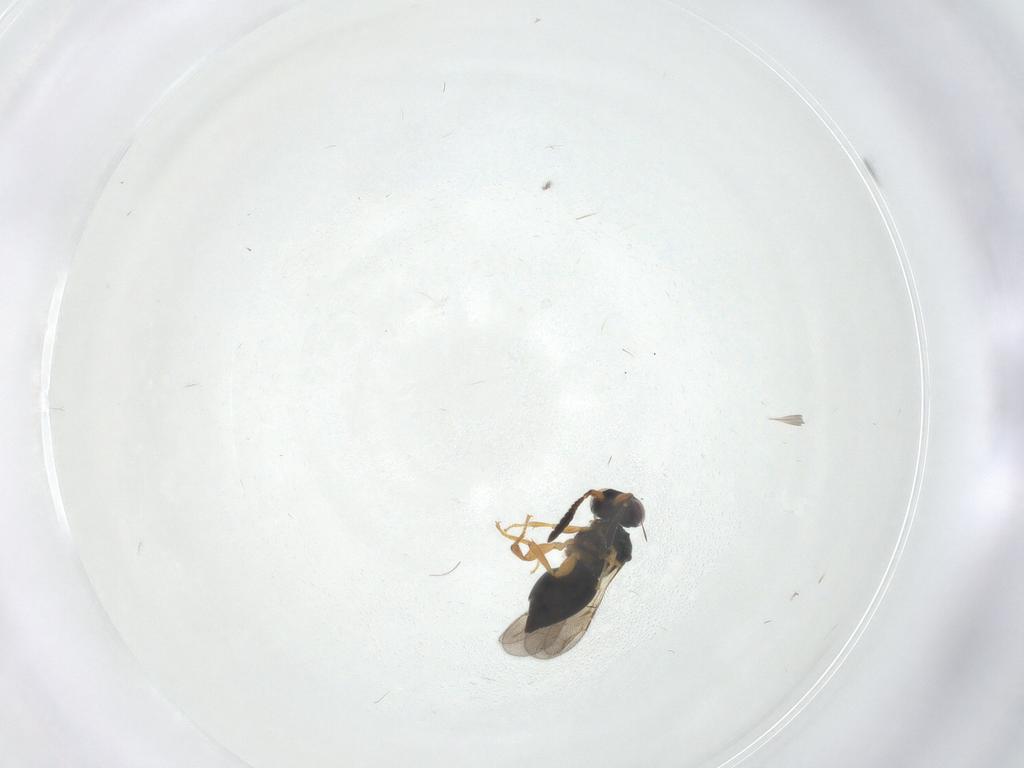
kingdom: Animalia
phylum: Arthropoda
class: Insecta
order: Hymenoptera
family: Ceraphronidae
